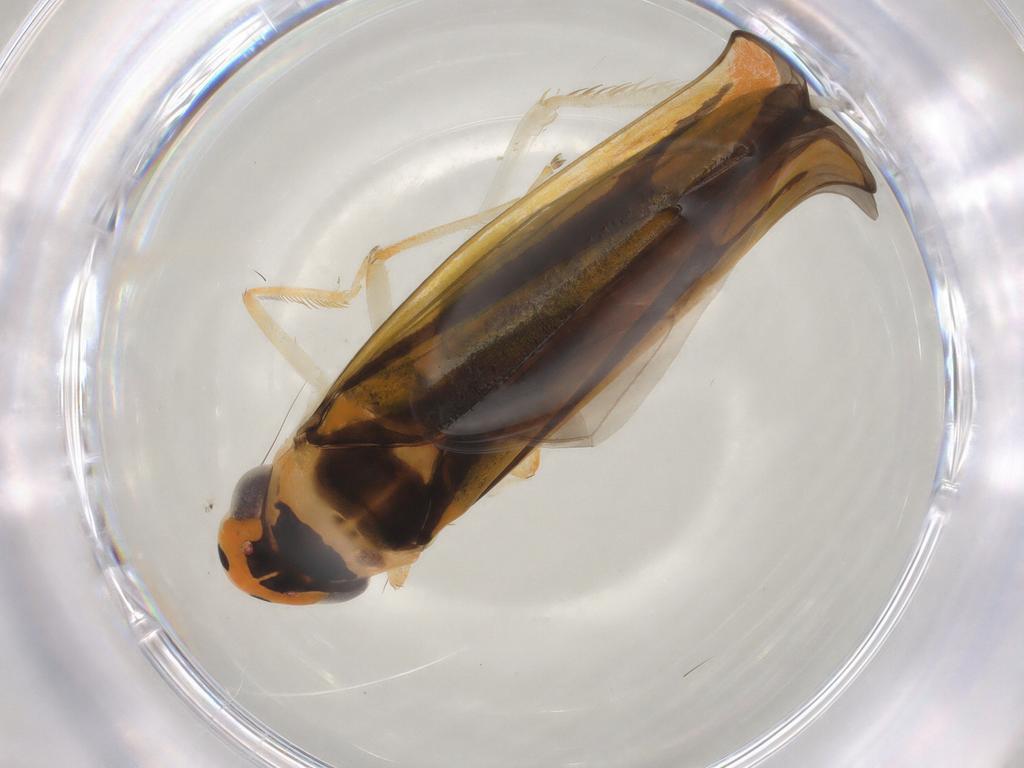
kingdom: Animalia
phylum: Arthropoda
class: Insecta
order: Hemiptera
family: Cicadellidae
